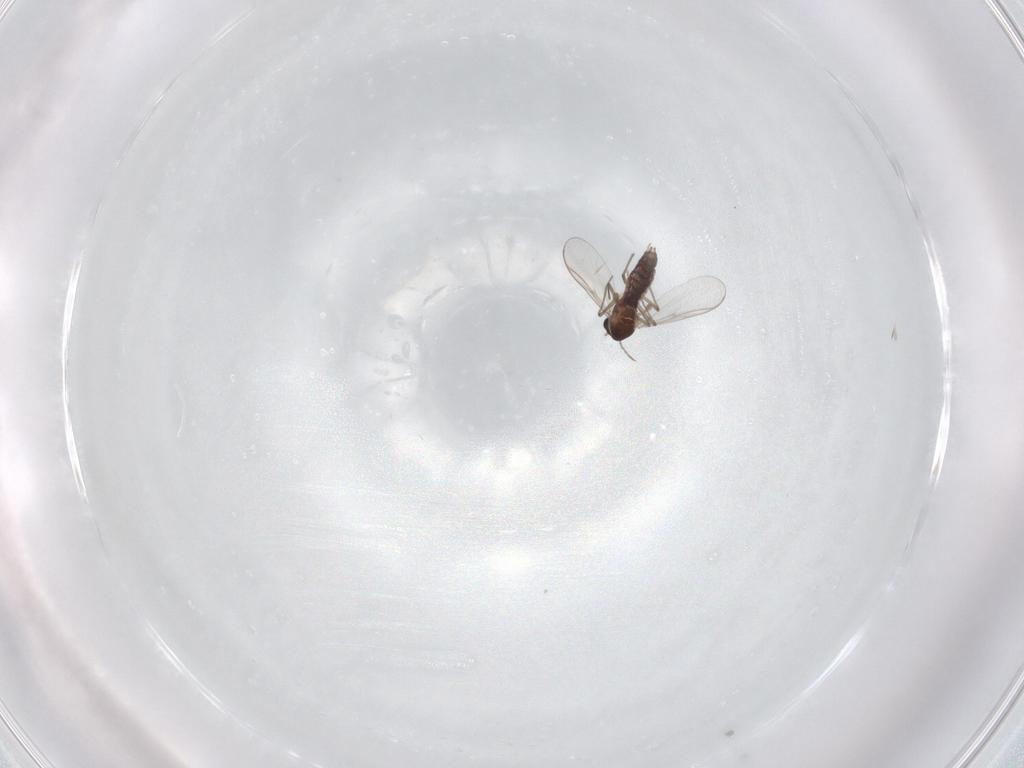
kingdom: Animalia
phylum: Arthropoda
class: Insecta
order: Diptera
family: Chironomidae
